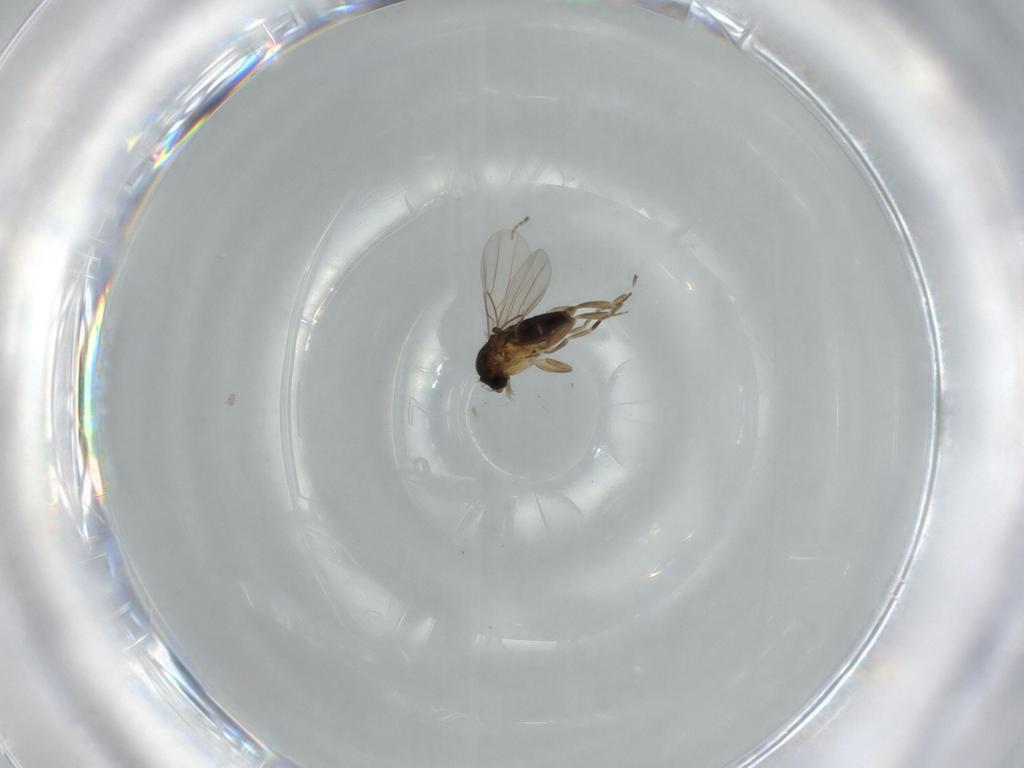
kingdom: Animalia
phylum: Arthropoda
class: Insecta
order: Diptera
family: Phoridae
